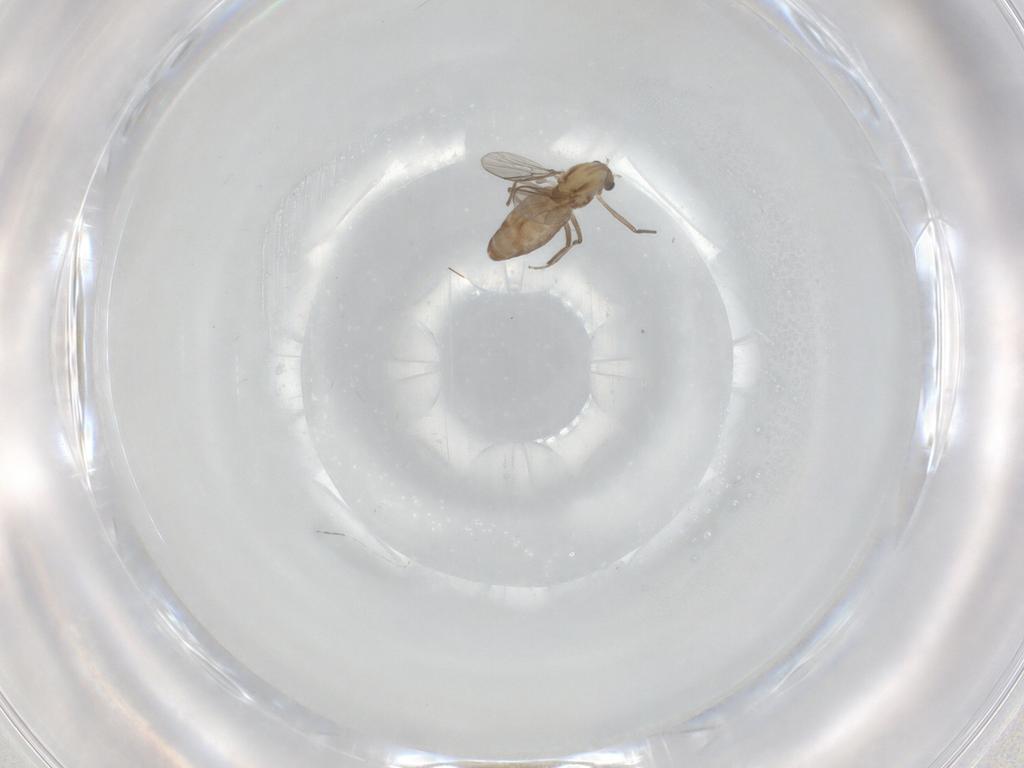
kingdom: Animalia
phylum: Arthropoda
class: Insecta
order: Diptera
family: Chironomidae
